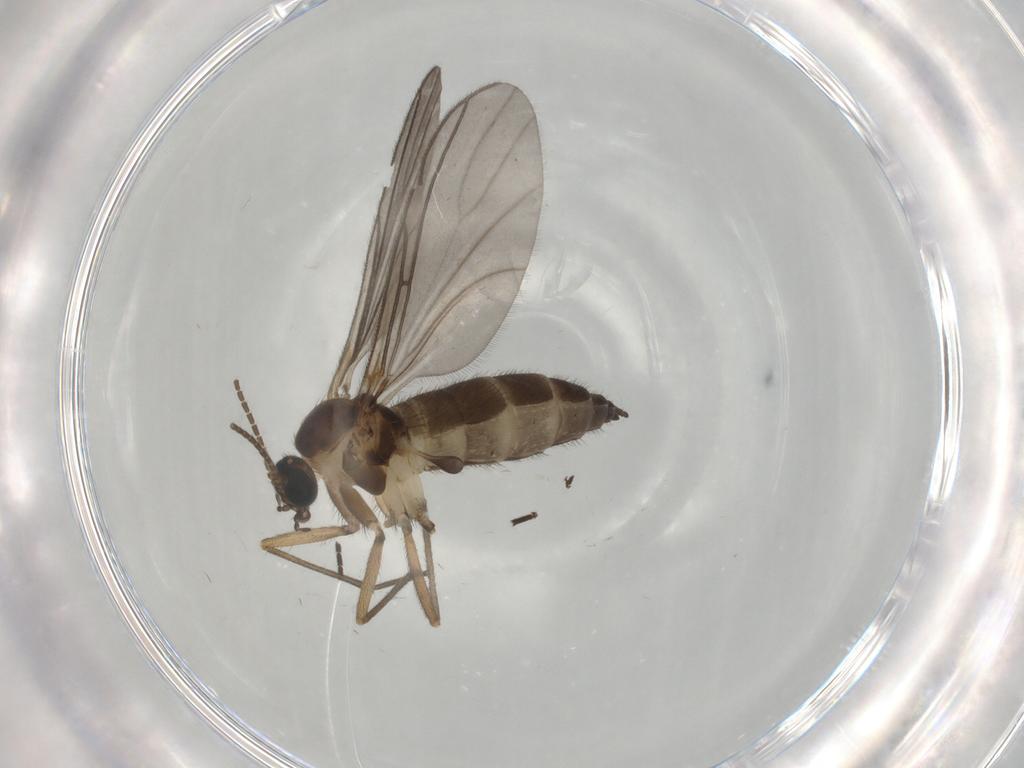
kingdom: Animalia
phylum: Arthropoda
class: Insecta
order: Diptera
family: Sciaridae
